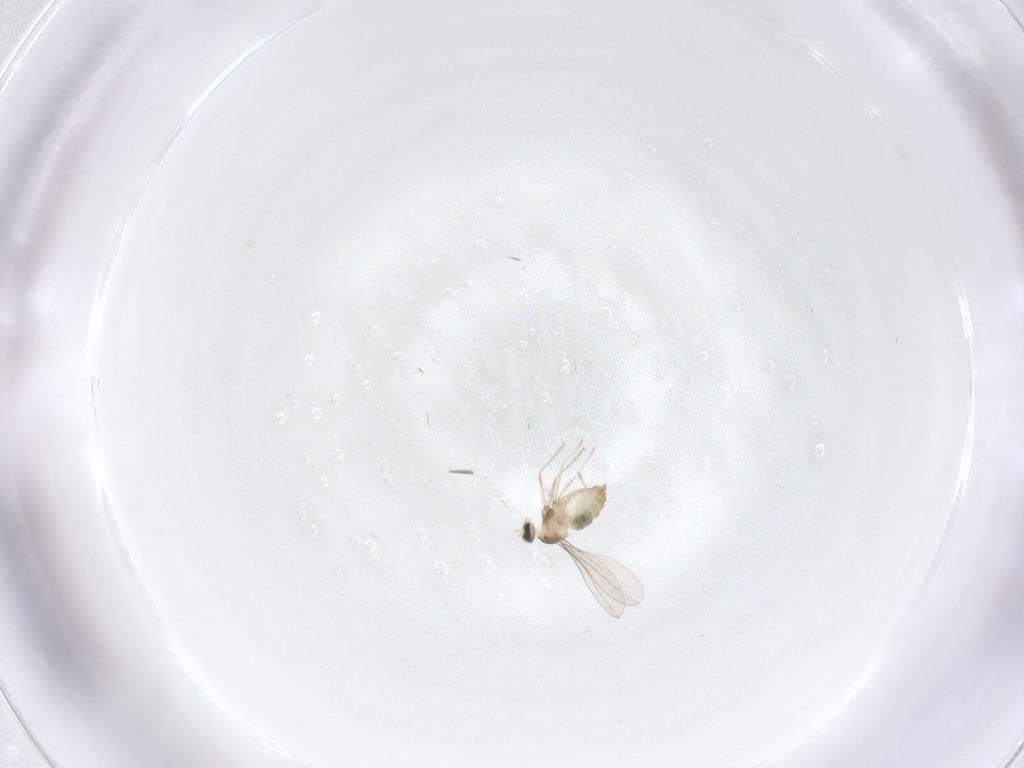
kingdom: Animalia
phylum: Arthropoda
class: Insecta
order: Diptera
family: Cecidomyiidae
